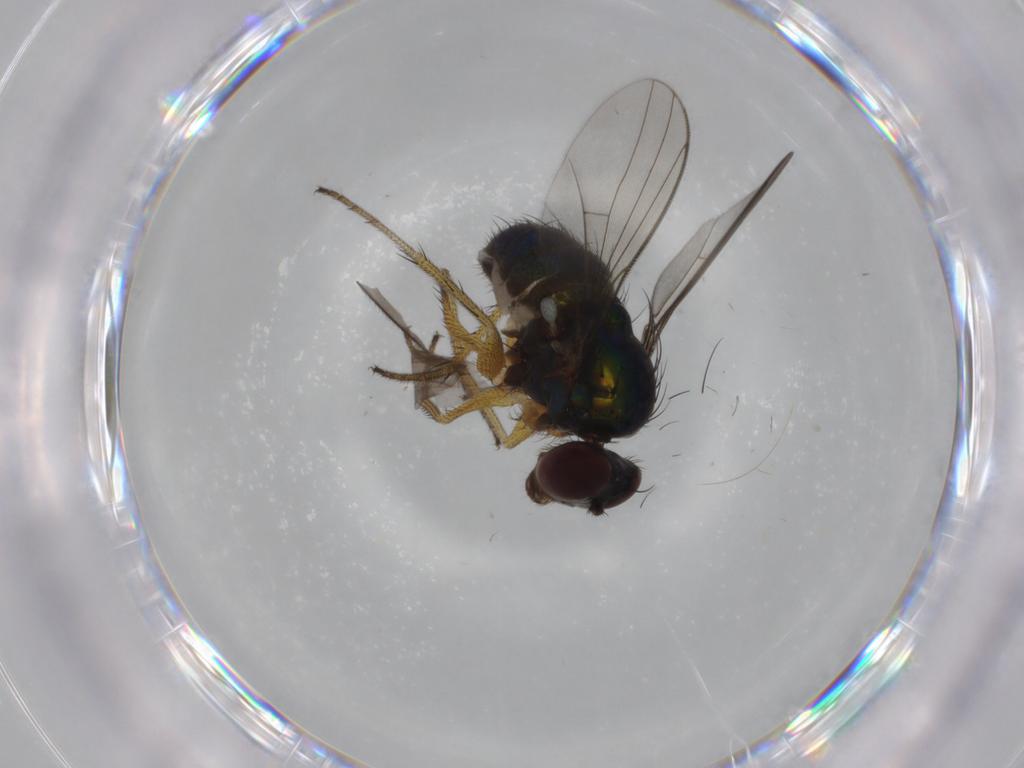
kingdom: Animalia
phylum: Arthropoda
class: Insecta
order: Diptera
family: Dolichopodidae
